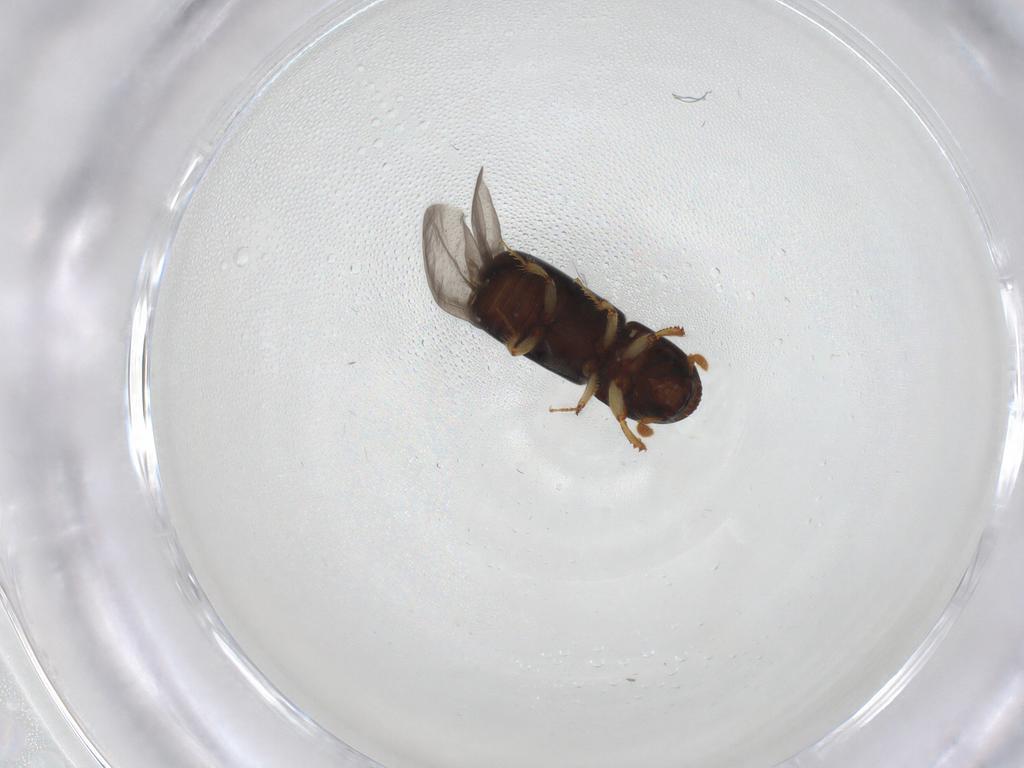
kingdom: Animalia
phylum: Arthropoda
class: Insecta
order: Coleoptera
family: Curculionidae
